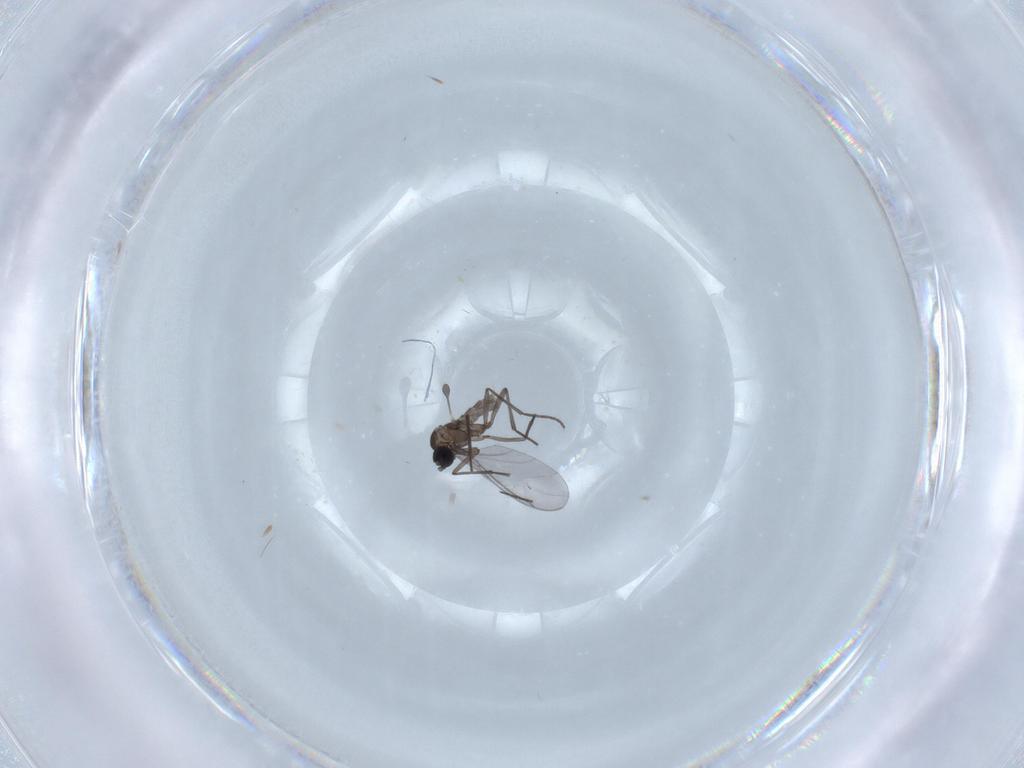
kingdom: Animalia
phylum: Arthropoda
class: Insecta
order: Diptera
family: Sciaridae
